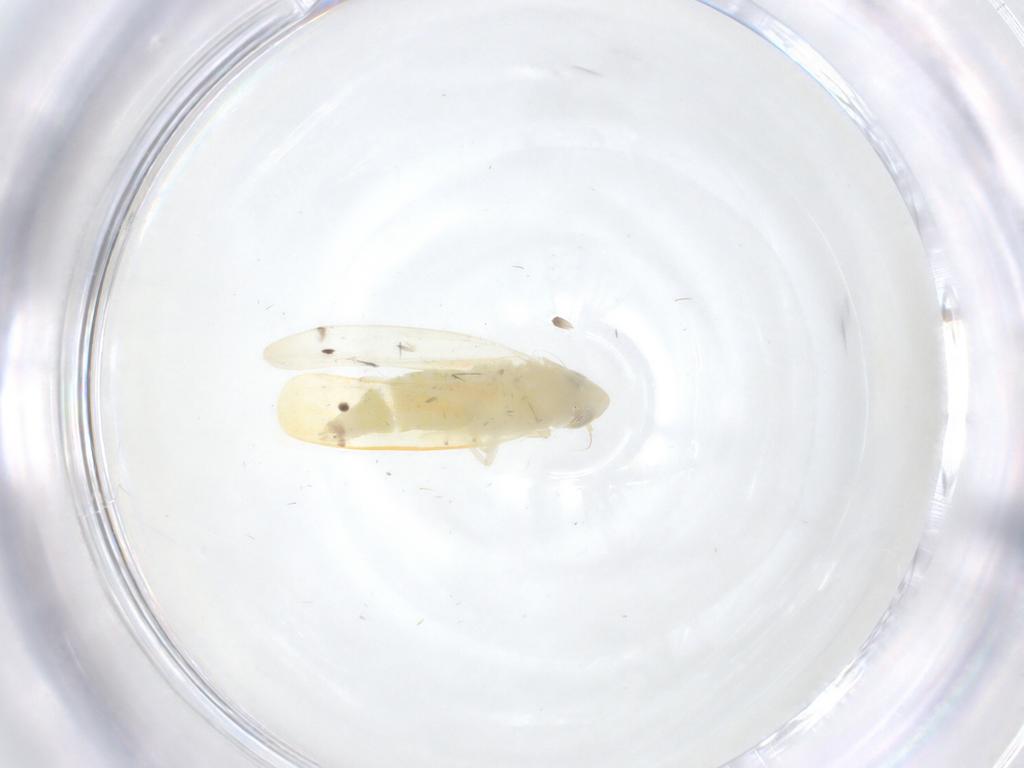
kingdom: Animalia
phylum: Arthropoda
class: Insecta
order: Hemiptera
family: Cicadellidae
